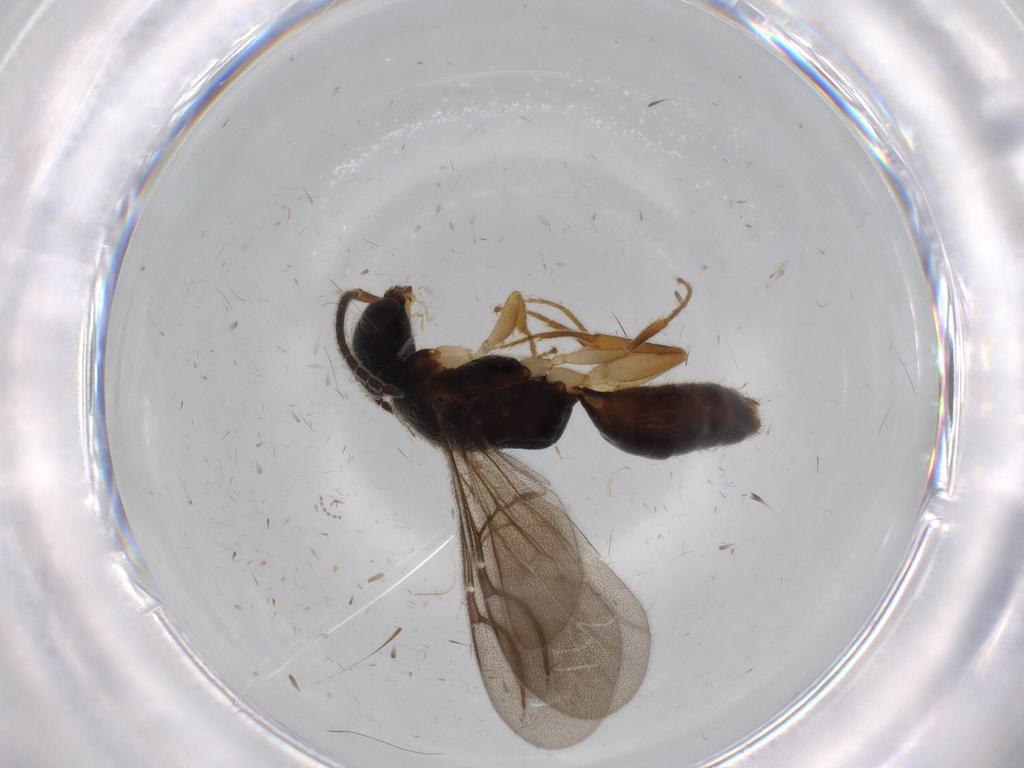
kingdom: Animalia
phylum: Arthropoda
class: Insecta
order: Hymenoptera
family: Bethylidae
